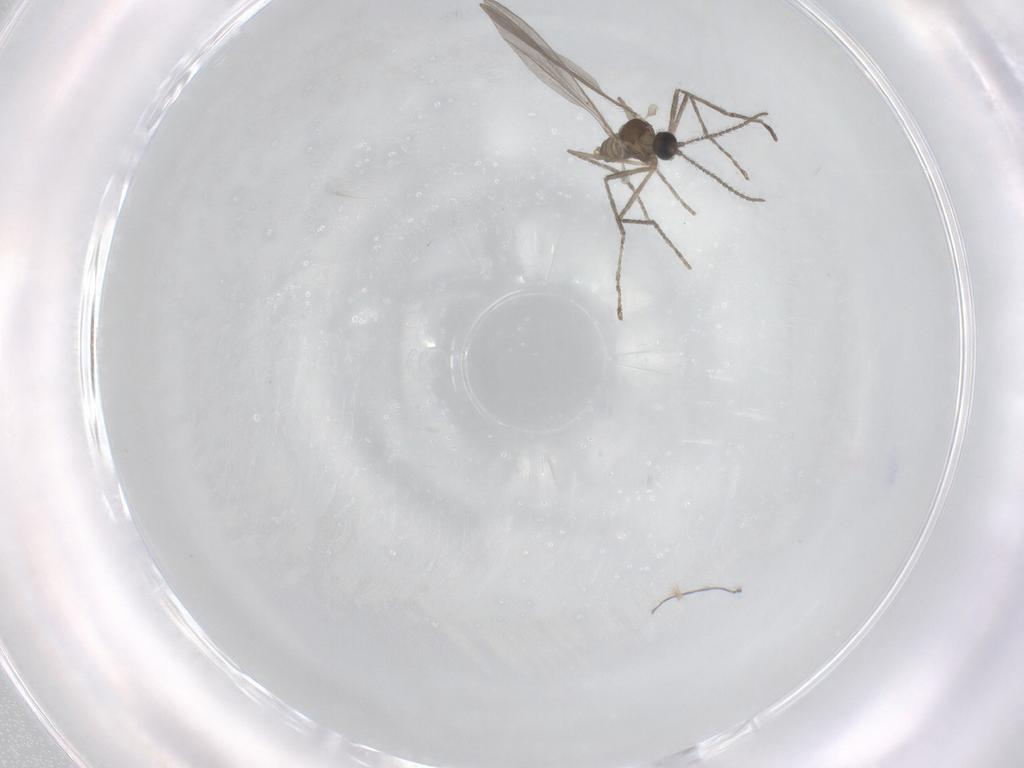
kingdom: Animalia
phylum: Arthropoda
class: Insecta
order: Diptera
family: Cecidomyiidae
